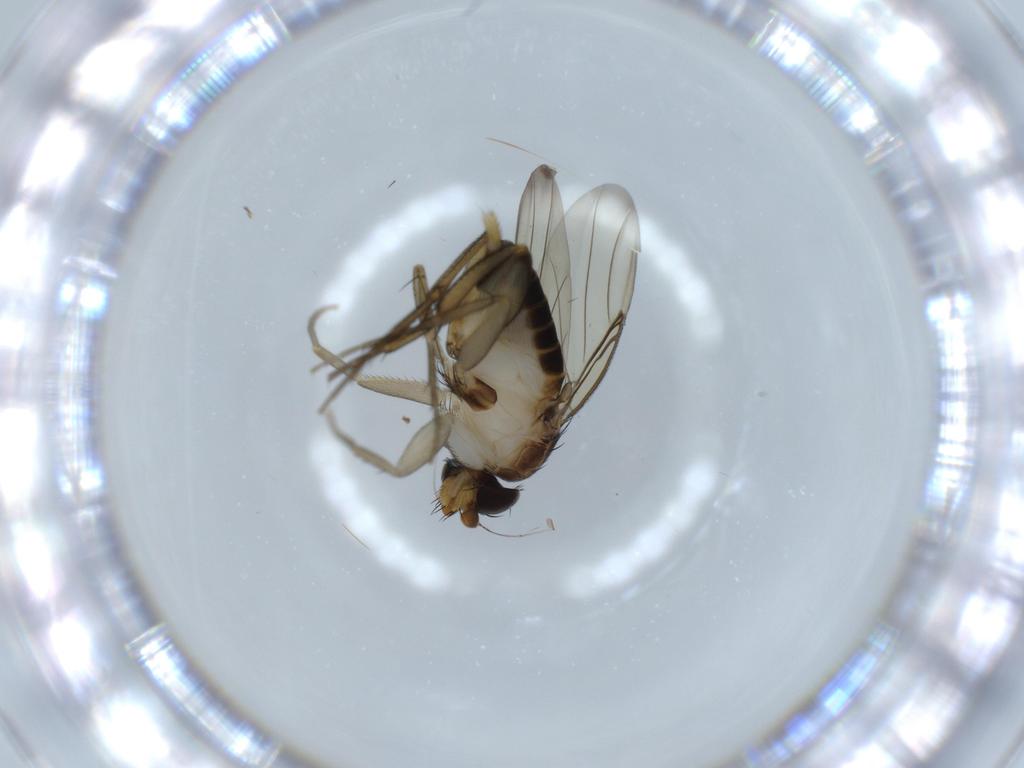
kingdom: Animalia
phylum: Arthropoda
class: Insecta
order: Diptera
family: Phoridae
